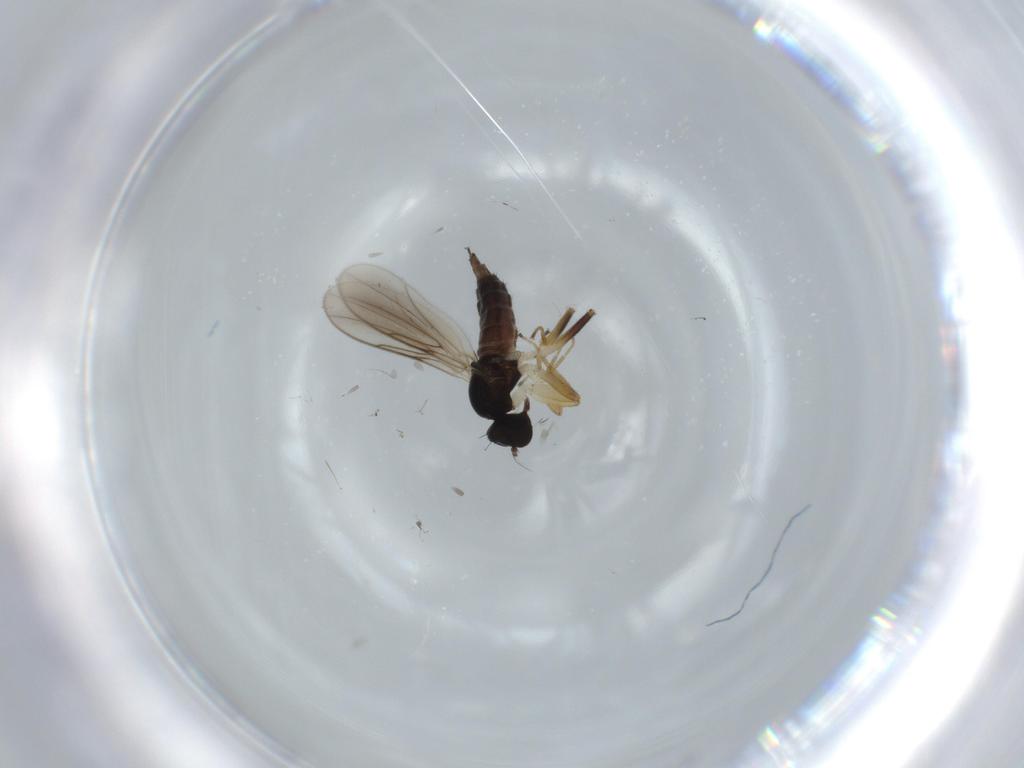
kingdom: Animalia
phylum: Arthropoda
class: Insecta
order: Diptera
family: Hybotidae
